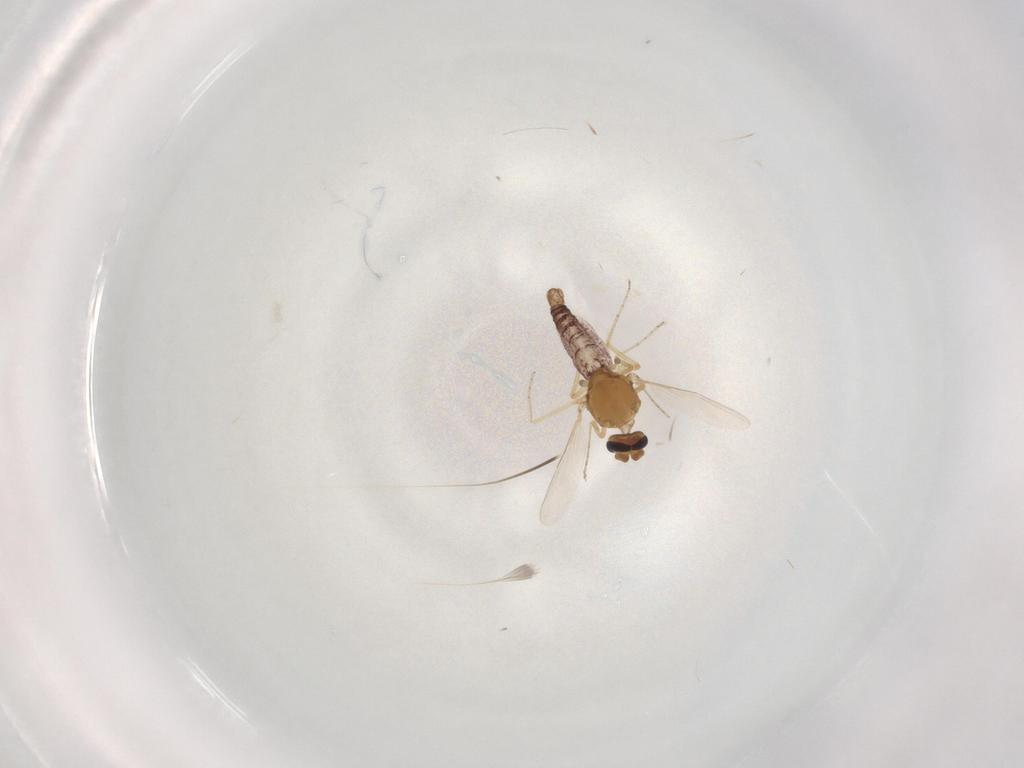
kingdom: Animalia
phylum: Arthropoda
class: Insecta
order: Diptera
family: Ceratopogonidae
